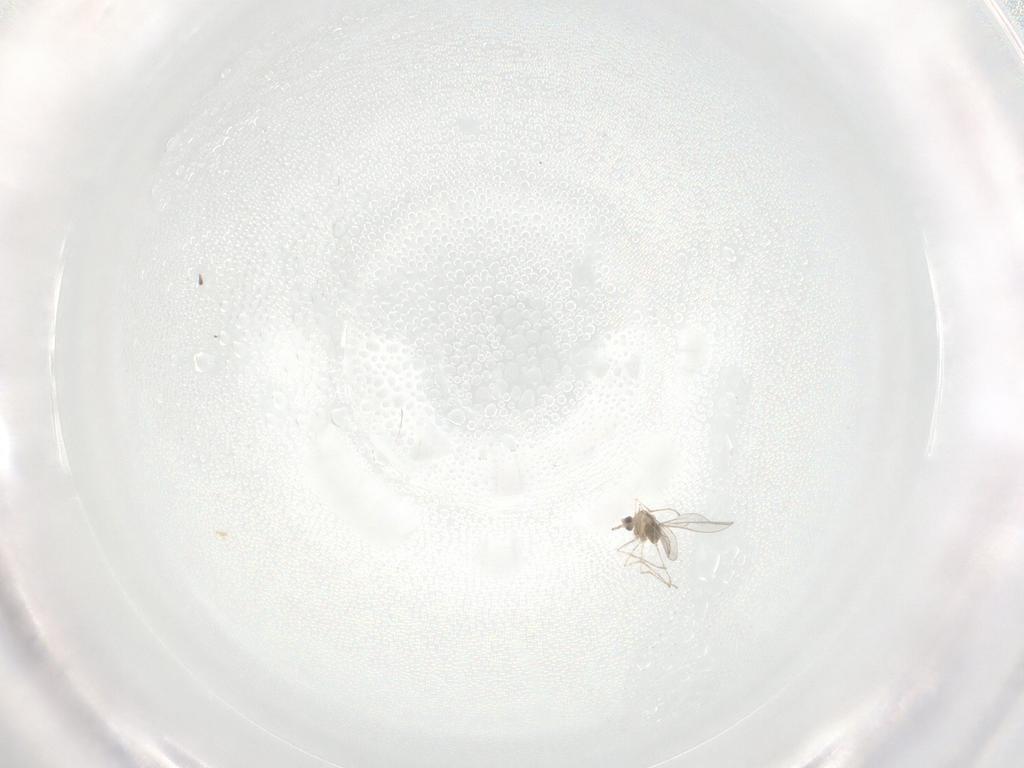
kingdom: Animalia
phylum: Arthropoda
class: Insecta
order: Diptera
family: Cecidomyiidae
